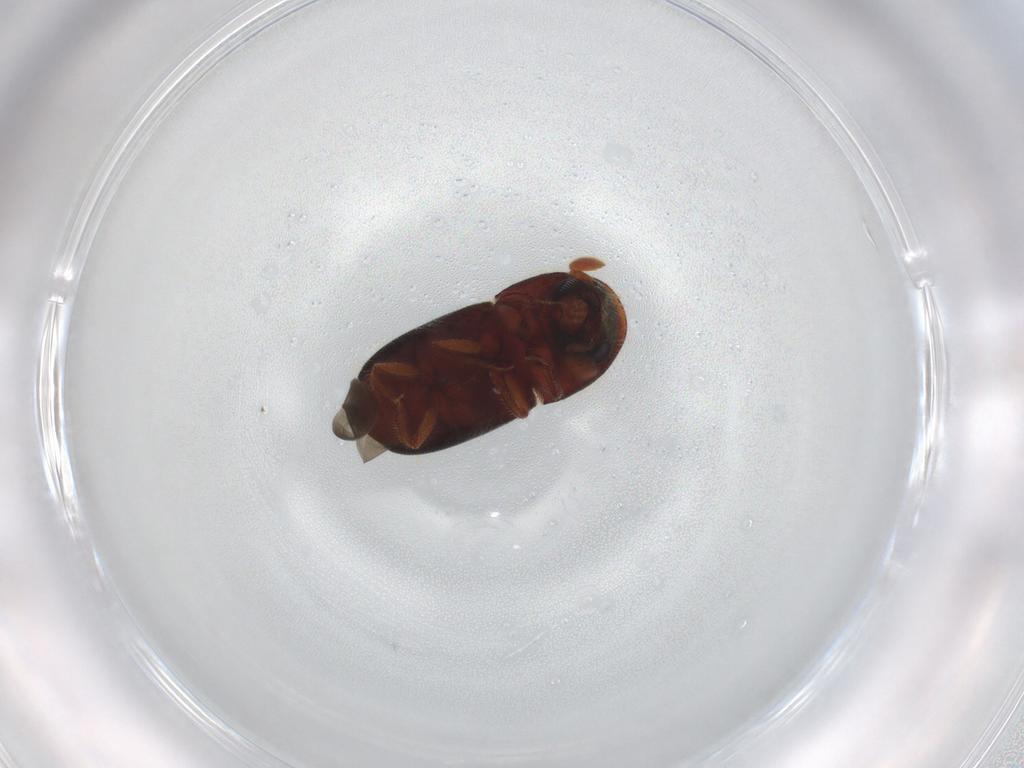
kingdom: Animalia
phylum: Arthropoda
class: Insecta
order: Coleoptera
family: Curculionidae
